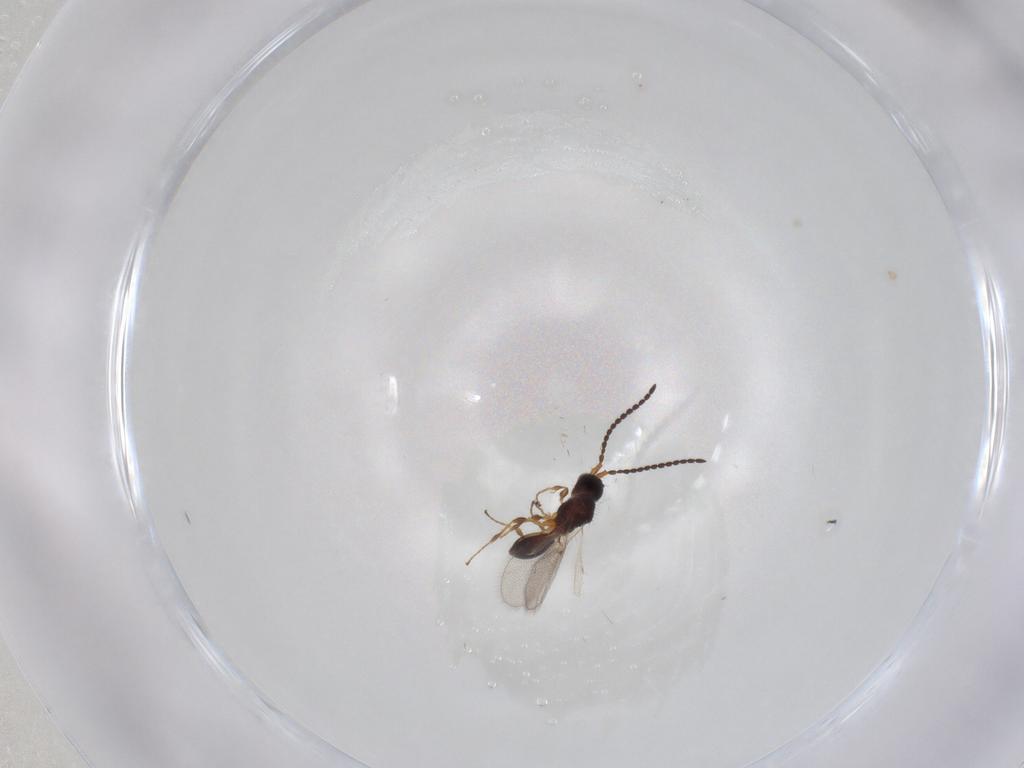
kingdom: Animalia
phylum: Arthropoda
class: Insecta
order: Hymenoptera
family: Diapriidae
